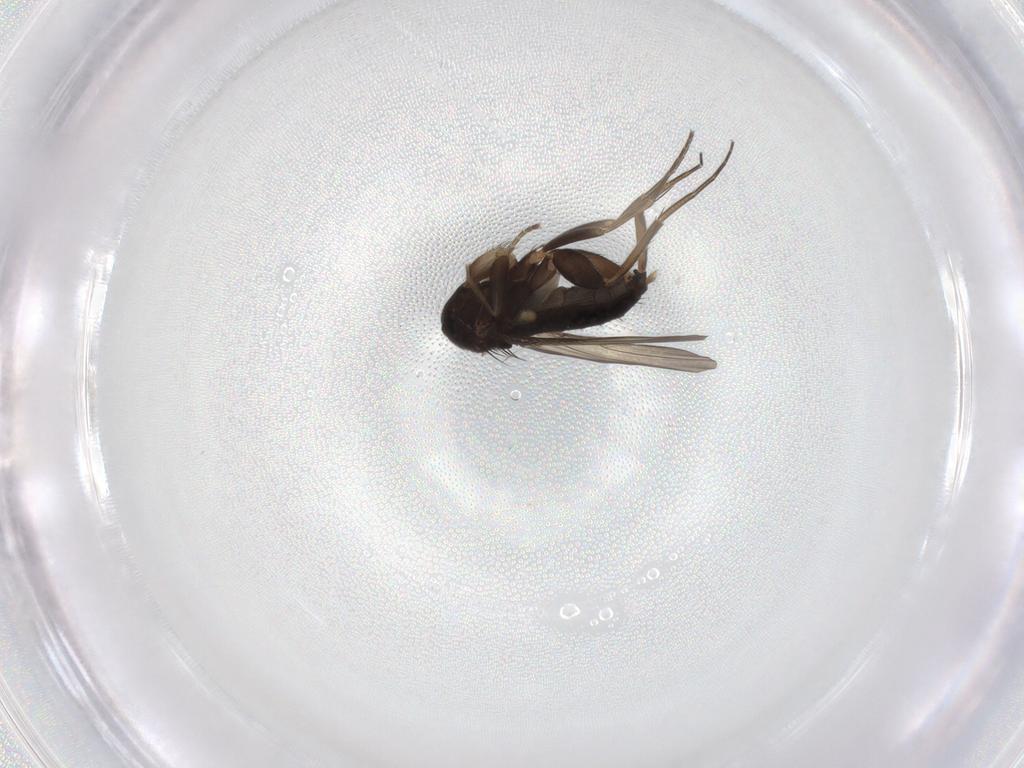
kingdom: Animalia
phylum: Arthropoda
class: Insecta
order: Diptera
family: Phoridae
